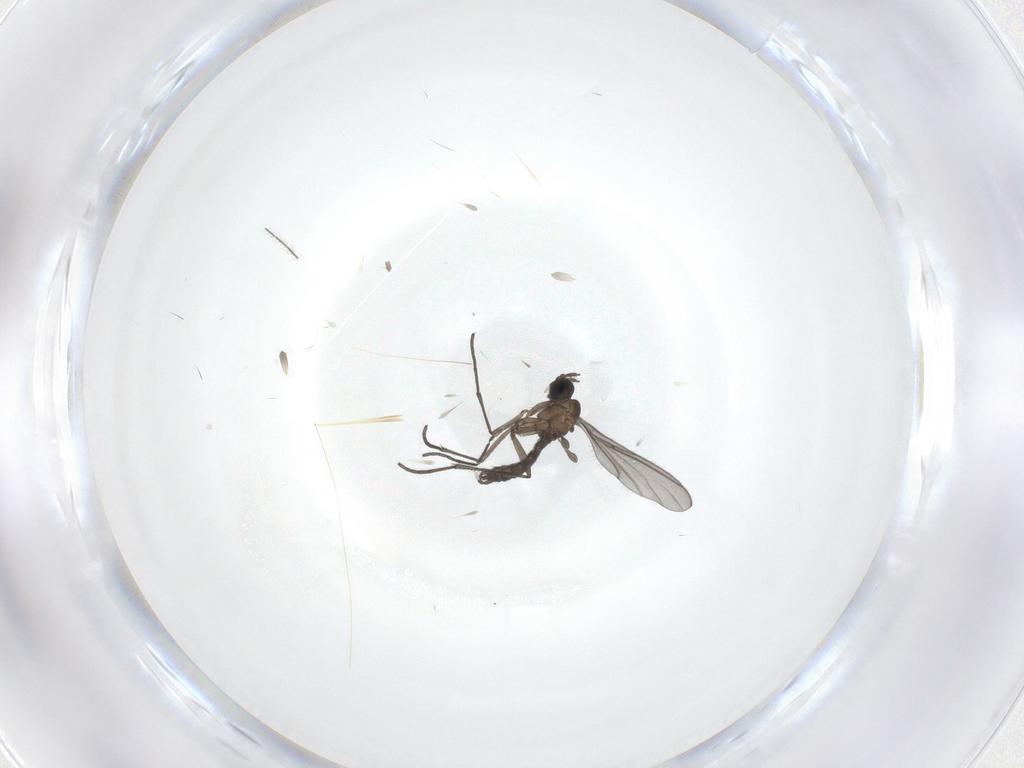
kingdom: Animalia
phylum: Arthropoda
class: Insecta
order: Diptera
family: Sciaridae
